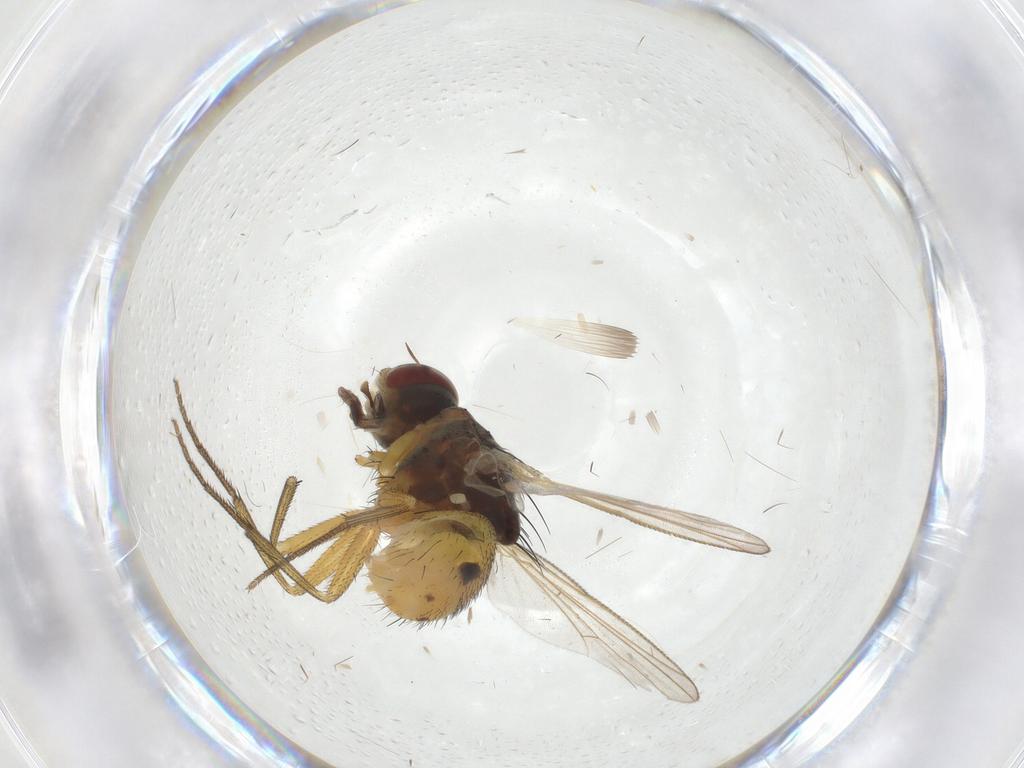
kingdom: Animalia
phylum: Arthropoda
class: Insecta
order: Diptera
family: Muscidae
